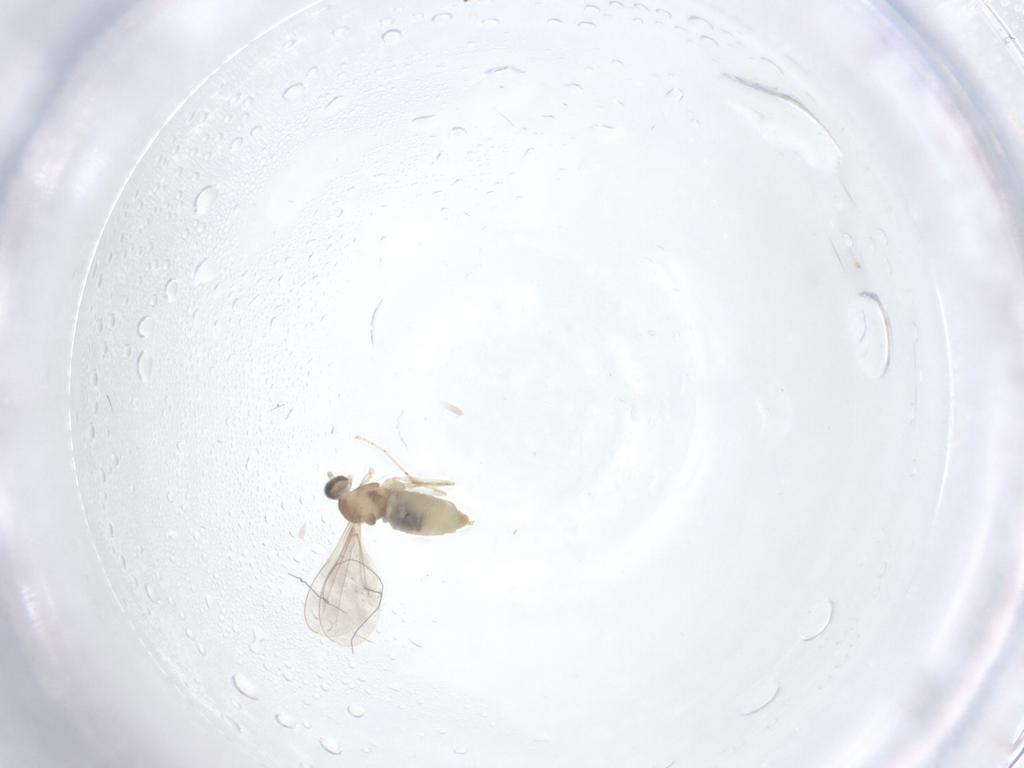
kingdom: Animalia
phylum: Arthropoda
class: Insecta
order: Diptera
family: Cecidomyiidae
